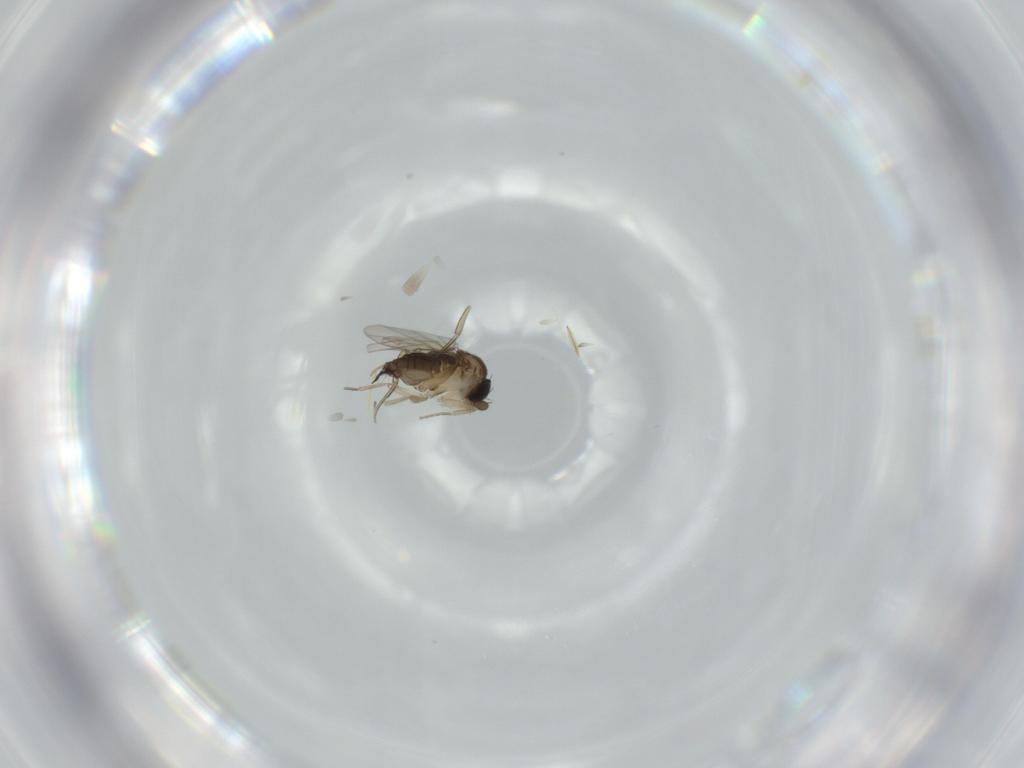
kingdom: Animalia
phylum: Arthropoda
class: Insecta
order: Diptera
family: Phoridae
